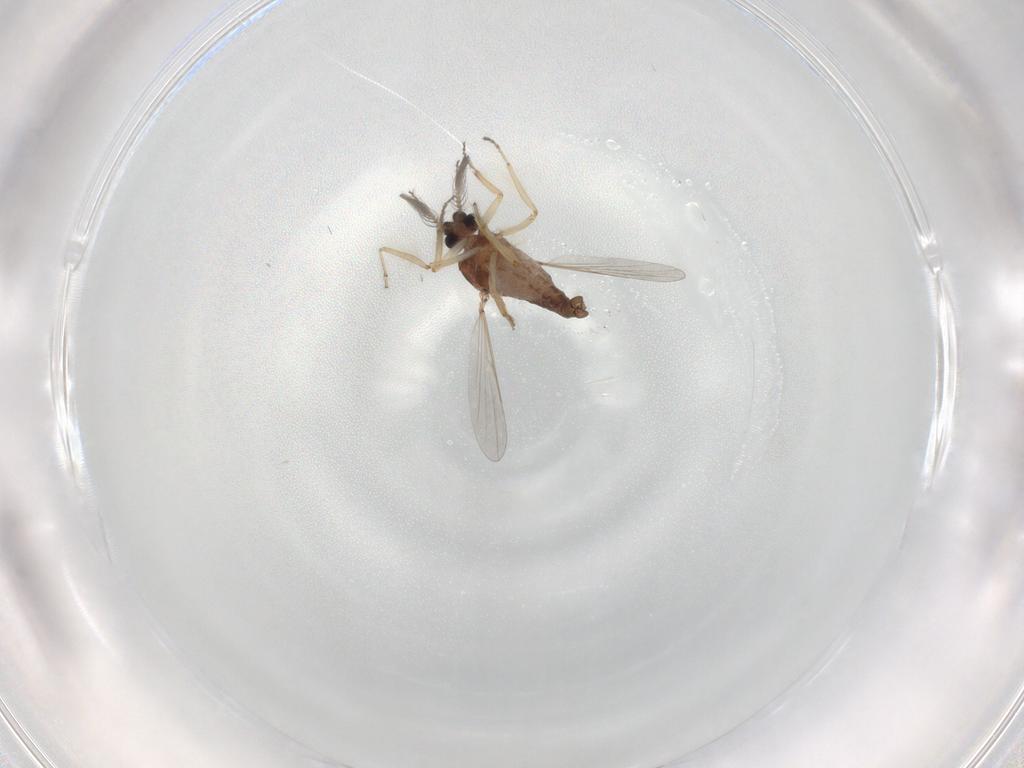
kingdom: Animalia
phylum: Arthropoda
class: Insecta
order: Diptera
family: Ceratopogonidae
